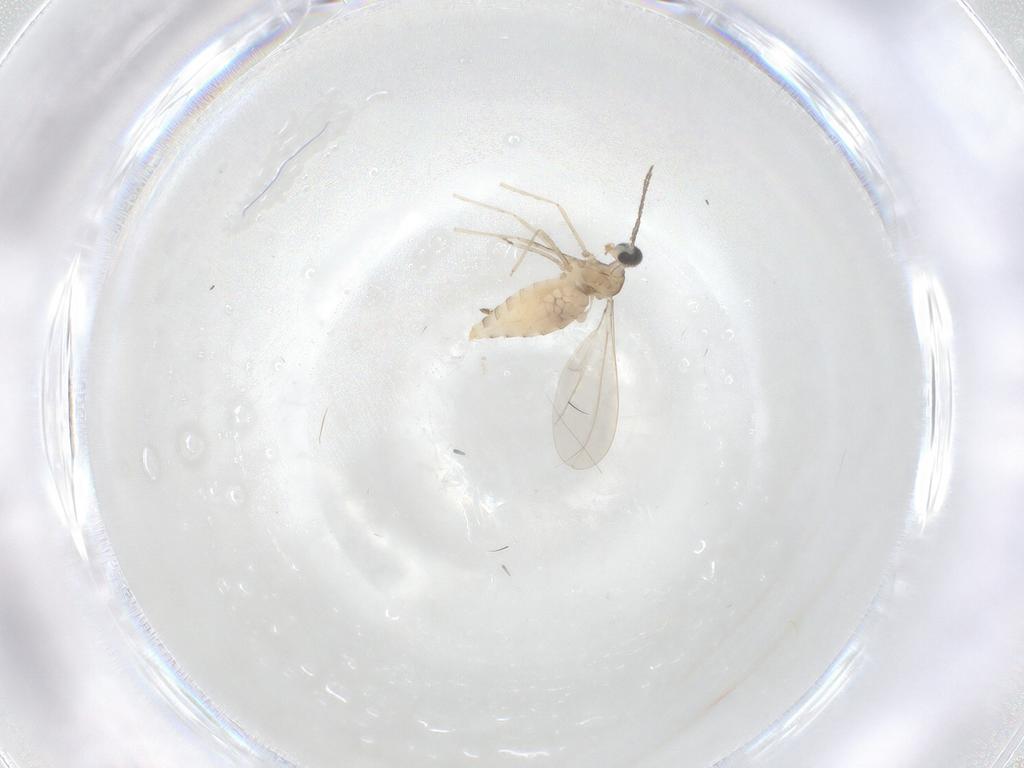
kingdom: Animalia
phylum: Arthropoda
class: Insecta
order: Diptera
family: Cecidomyiidae
